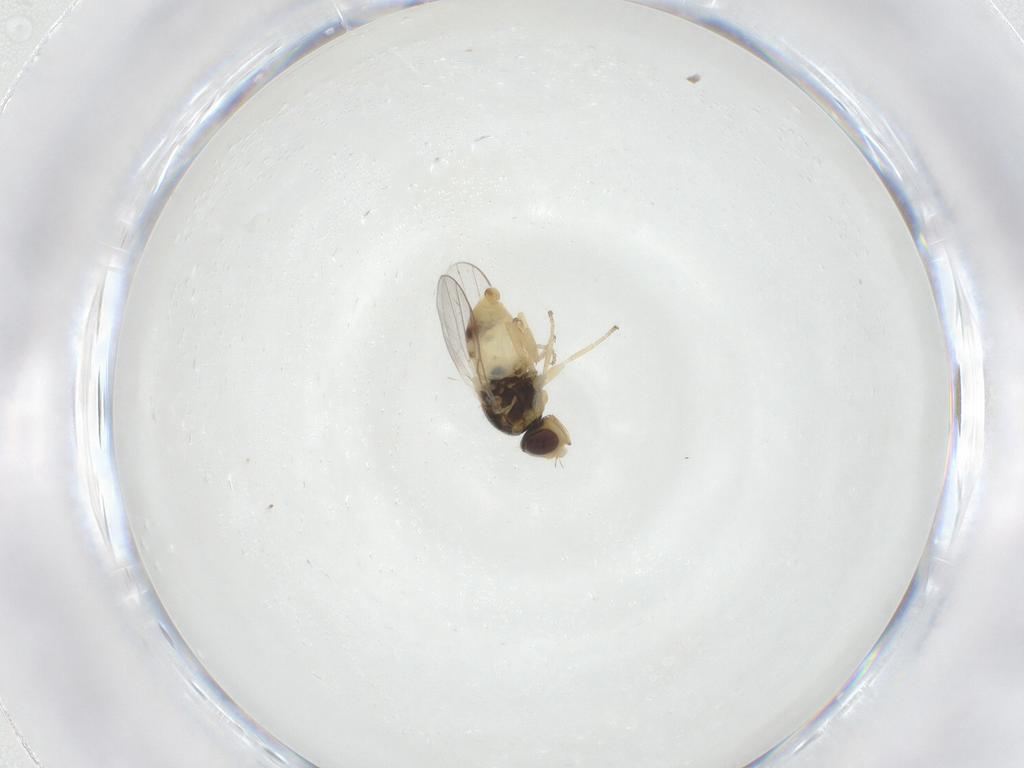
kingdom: Animalia
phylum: Arthropoda
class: Insecta
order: Diptera
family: Chloropidae
